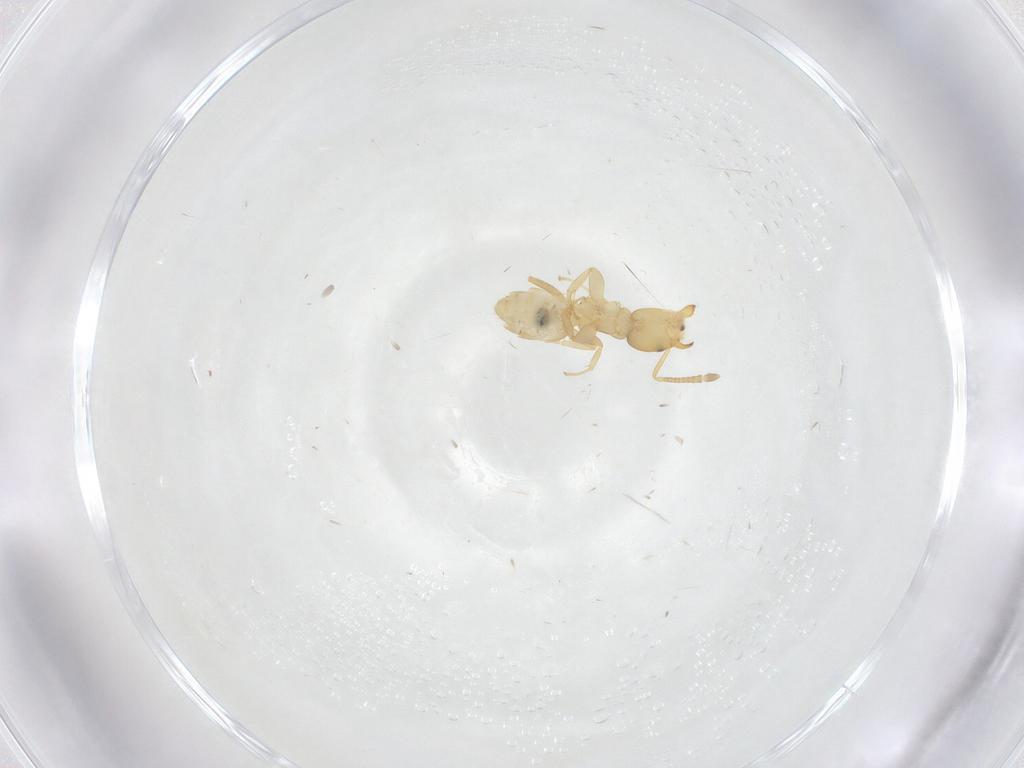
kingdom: Animalia
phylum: Arthropoda
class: Insecta
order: Hymenoptera
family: Formicidae
